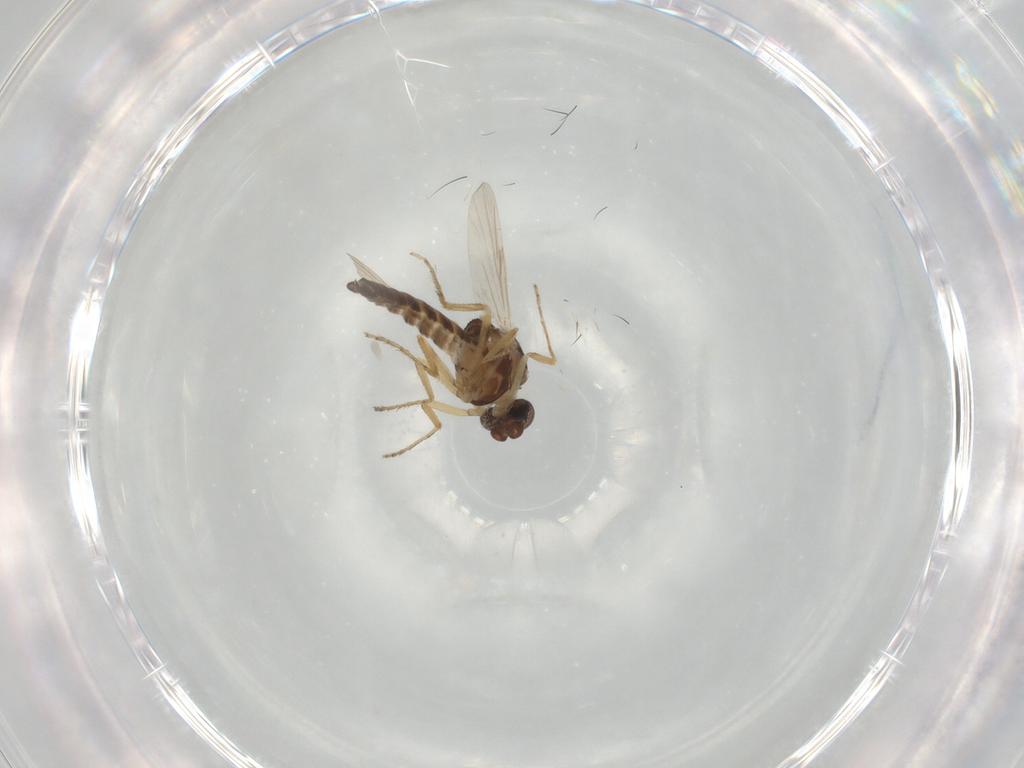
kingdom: Animalia
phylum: Arthropoda
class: Insecta
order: Diptera
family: Ceratopogonidae
